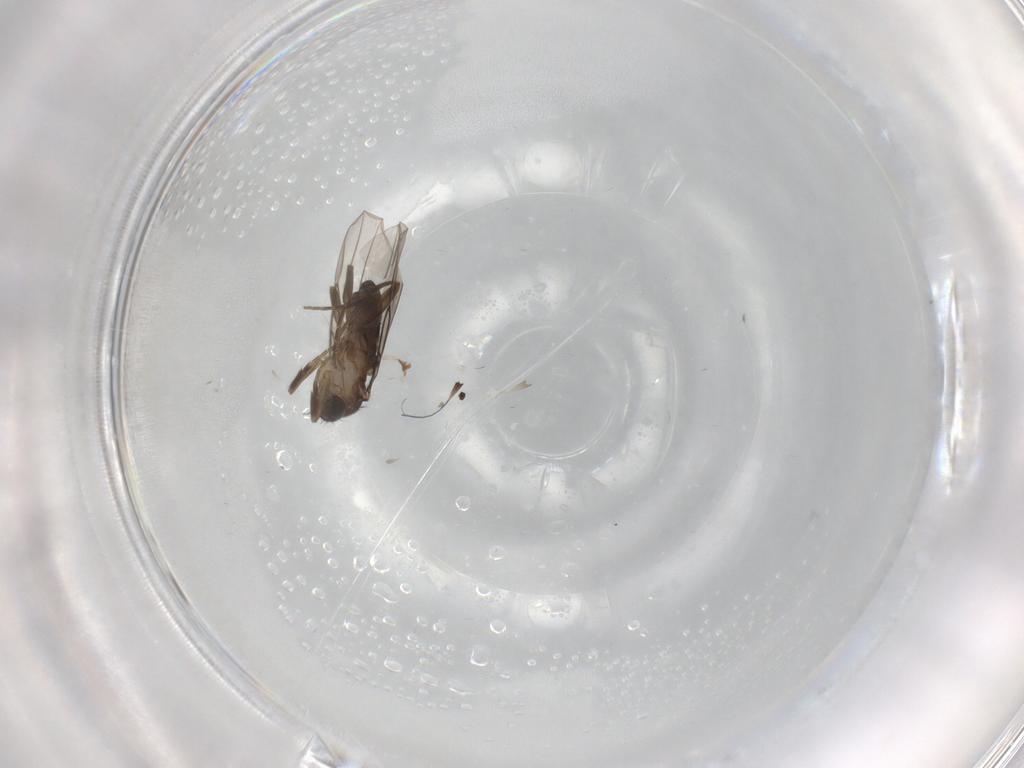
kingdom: Animalia
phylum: Arthropoda
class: Insecta
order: Diptera
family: Phoridae
